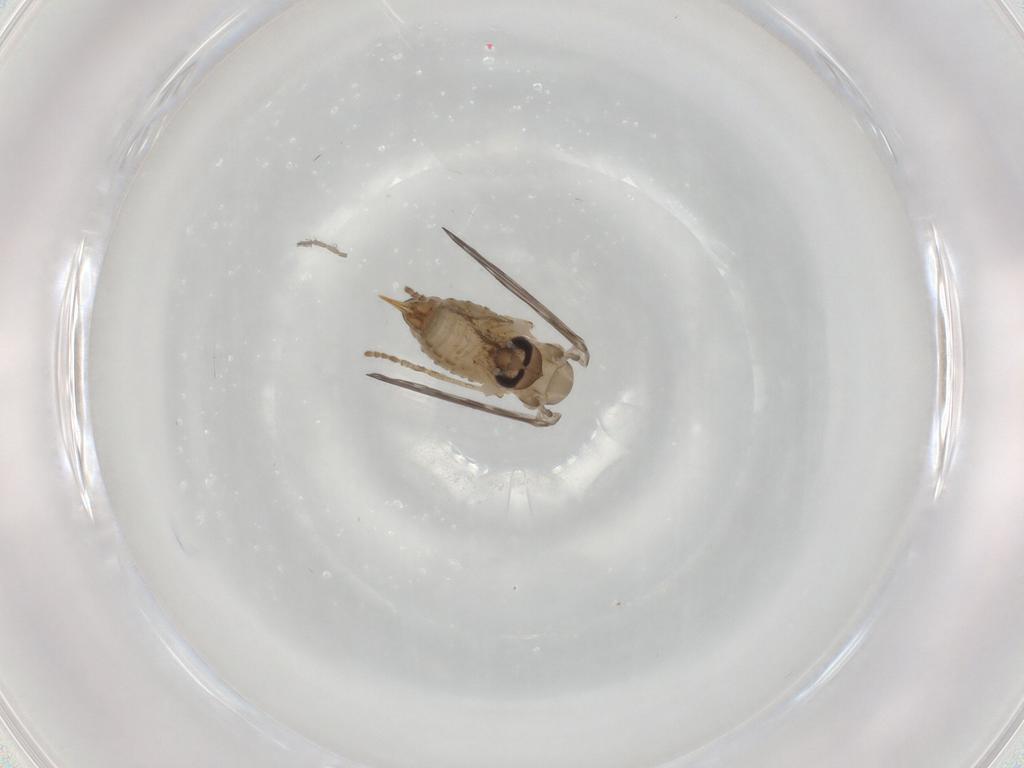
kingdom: Animalia
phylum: Arthropoda
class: Insecta
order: Diptera
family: Psychodidae
